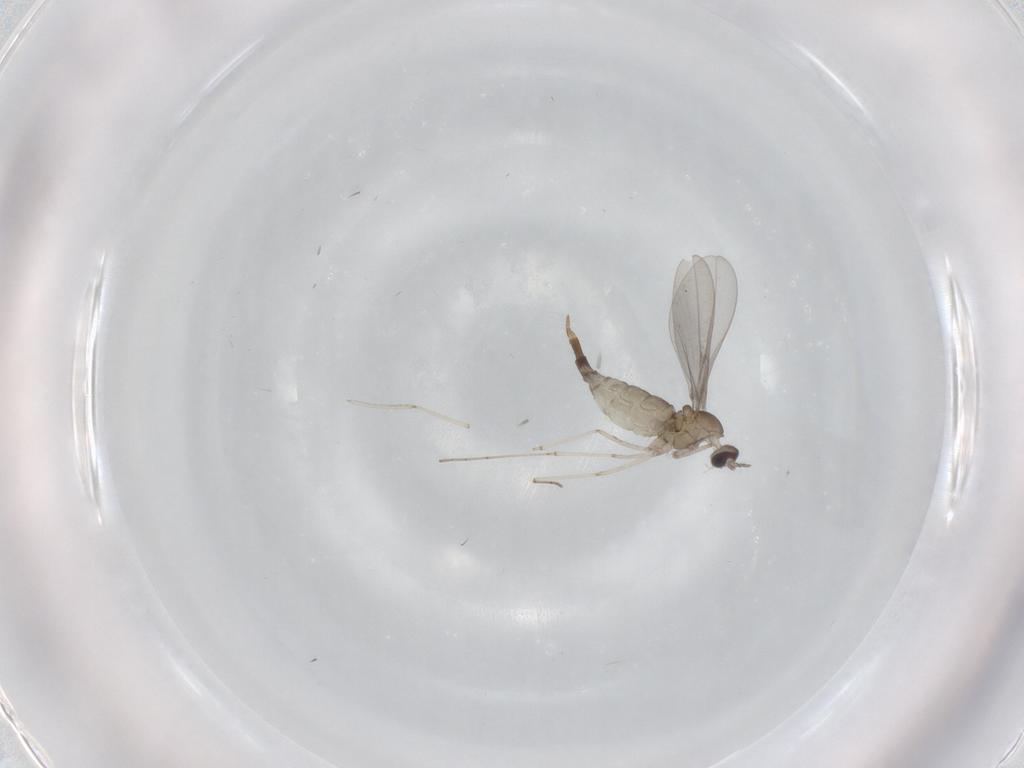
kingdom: Animalia
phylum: Arthropoda
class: Insecta
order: Diptera
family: Cecidomyiidae
